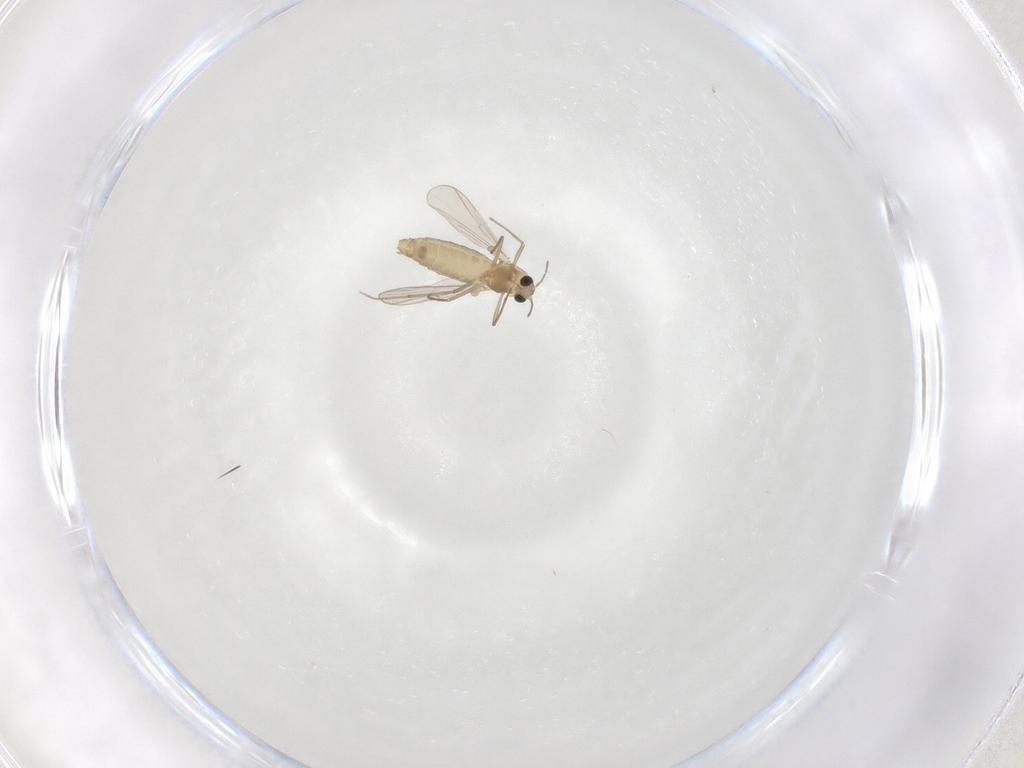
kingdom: Animalia
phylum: Arthropoda
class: Insecta
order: Diptera
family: Chironomidae
